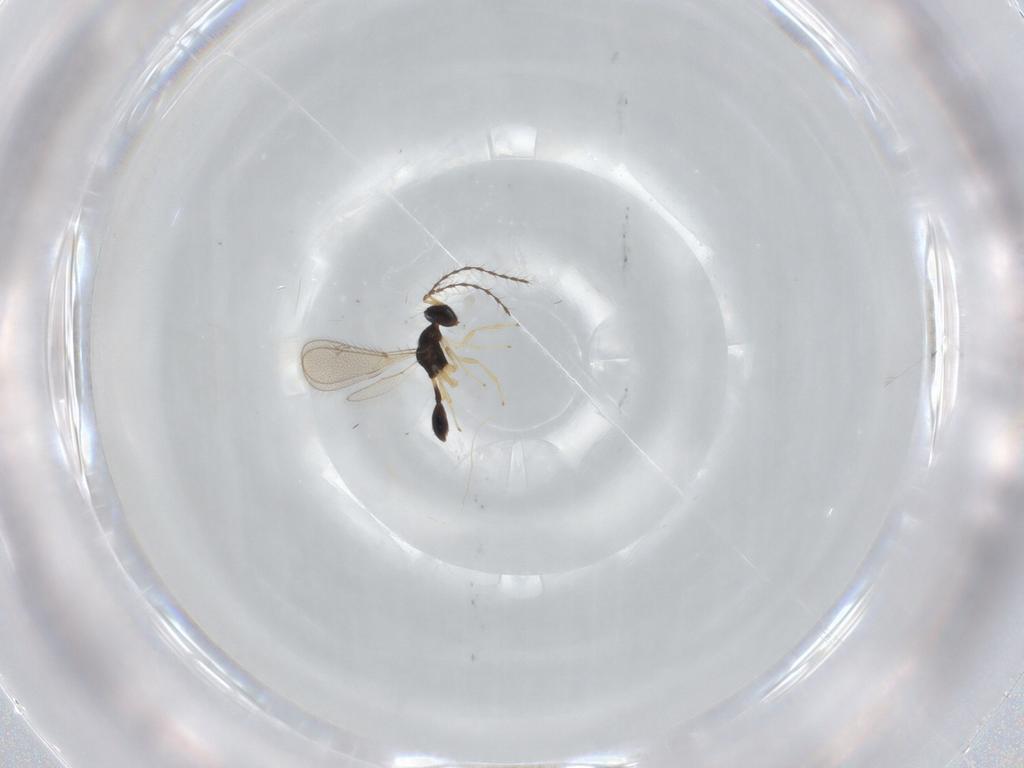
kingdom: Animalia
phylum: Arthropoda
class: Insecta
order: Hymenoptera
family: Diparidae
